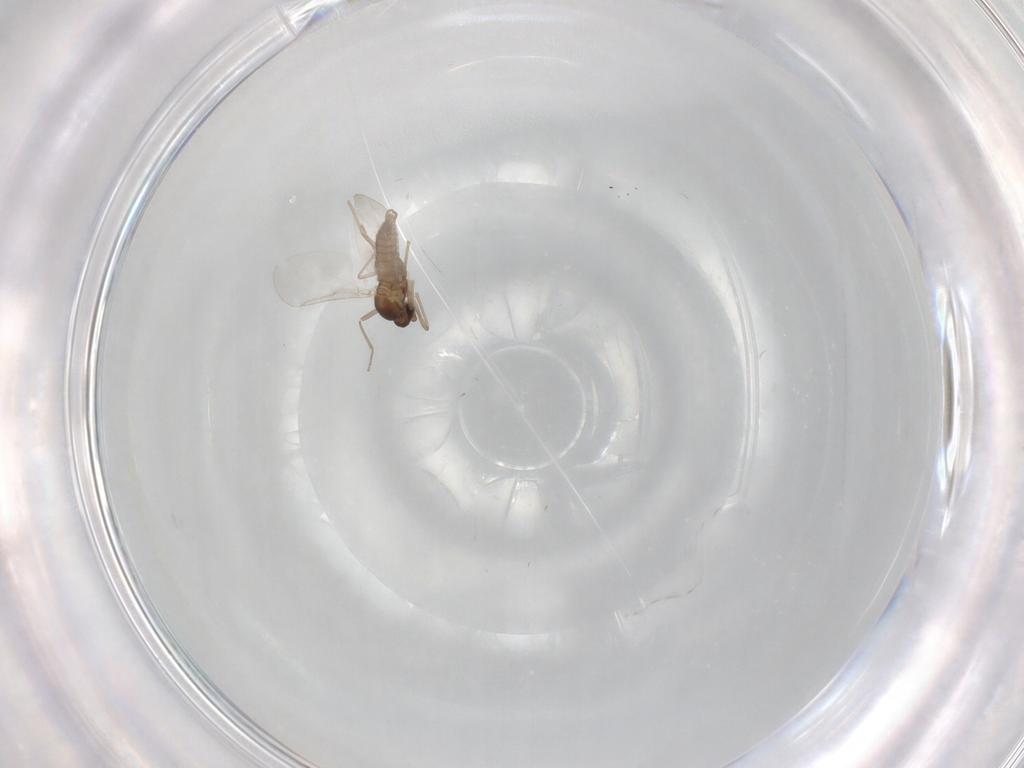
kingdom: Animalia
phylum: Arthropoda
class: Insecta
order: Diptera
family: Cecidomyiidae
